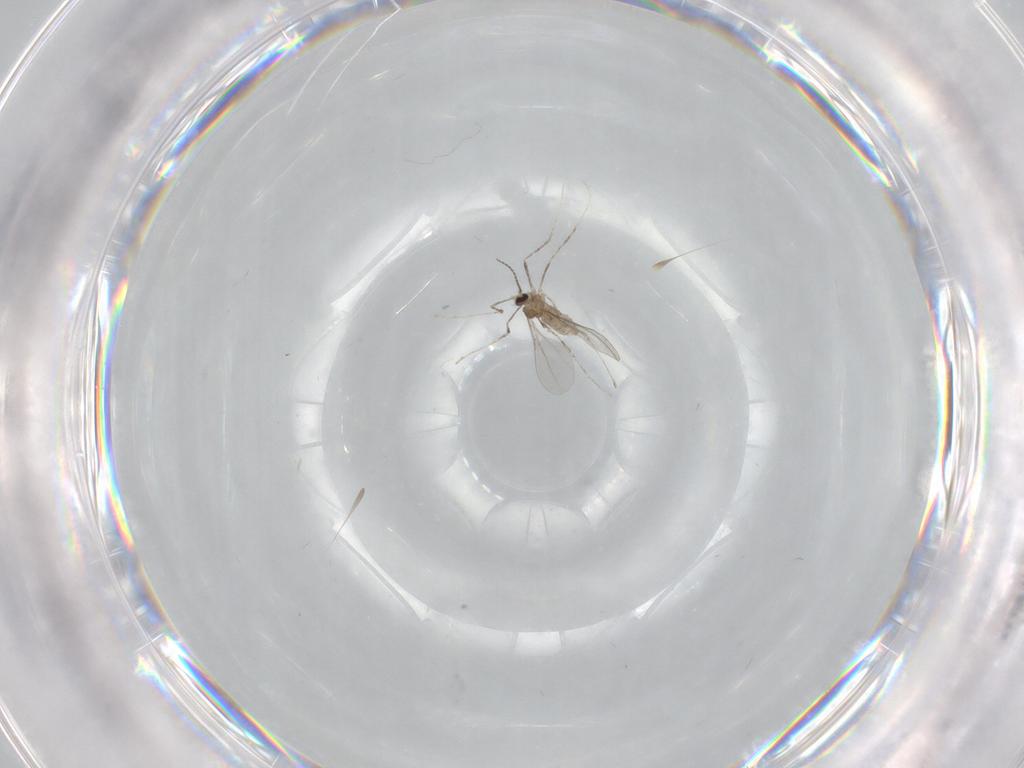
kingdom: Animalia
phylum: Arthropoda
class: Insecta
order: Diptera
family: Cecidomyiidae
